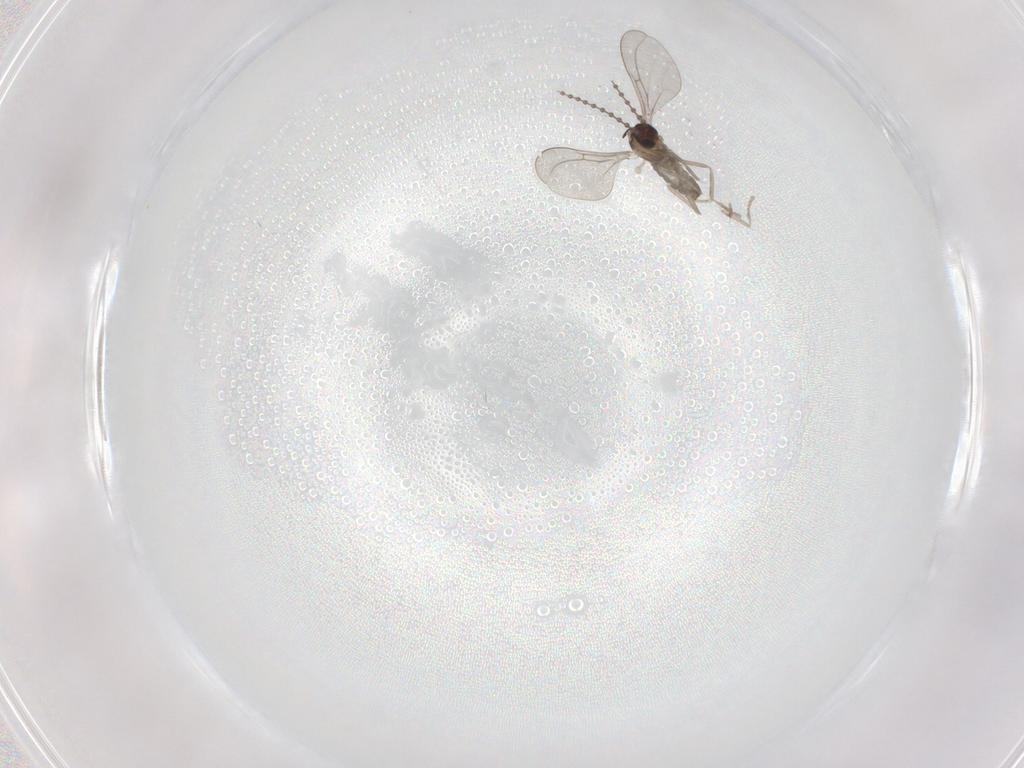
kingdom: Animalia
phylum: Arthropoda
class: Insecta
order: Diptera
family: Cecidomyiidae
